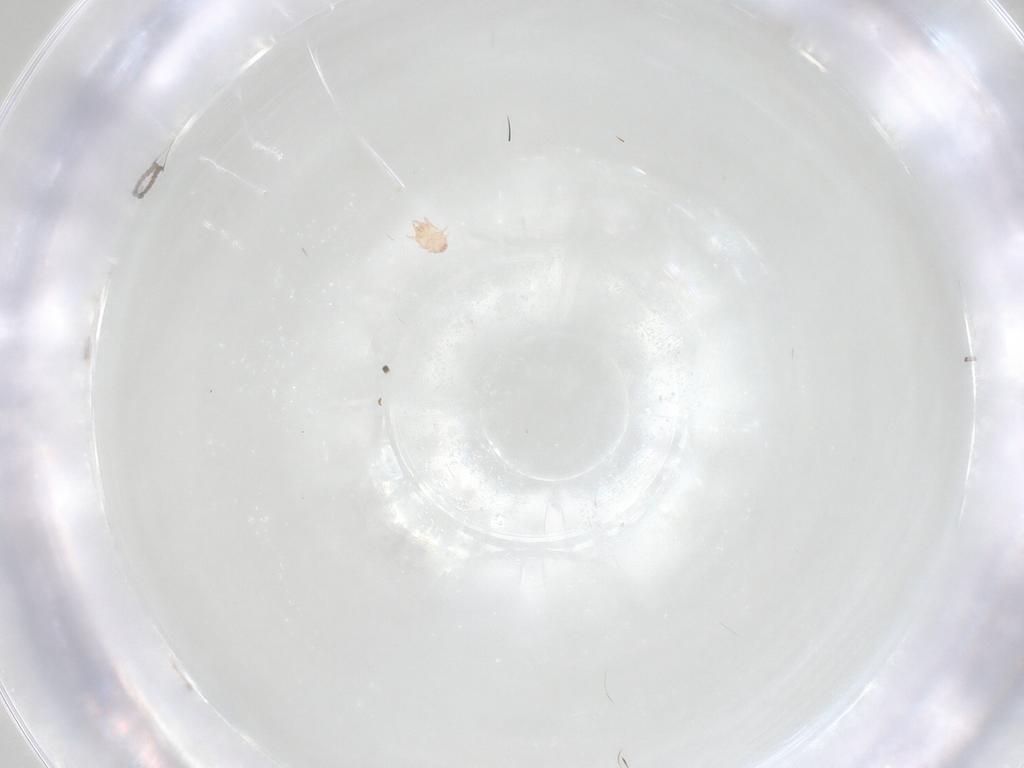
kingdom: Animalia
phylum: Arthropoda
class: Insecta
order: Diptera
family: Cecidomyiidae
